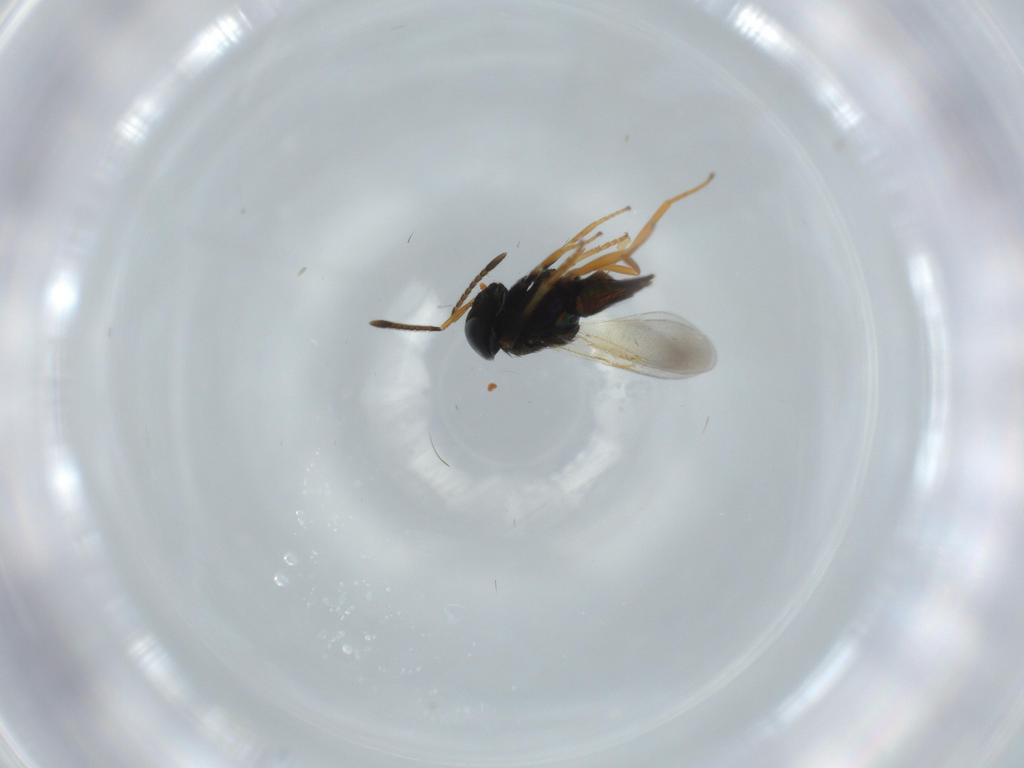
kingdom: Animalia
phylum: Arthropoda
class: Insecta
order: Hymenoptera
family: Encyrtidae
